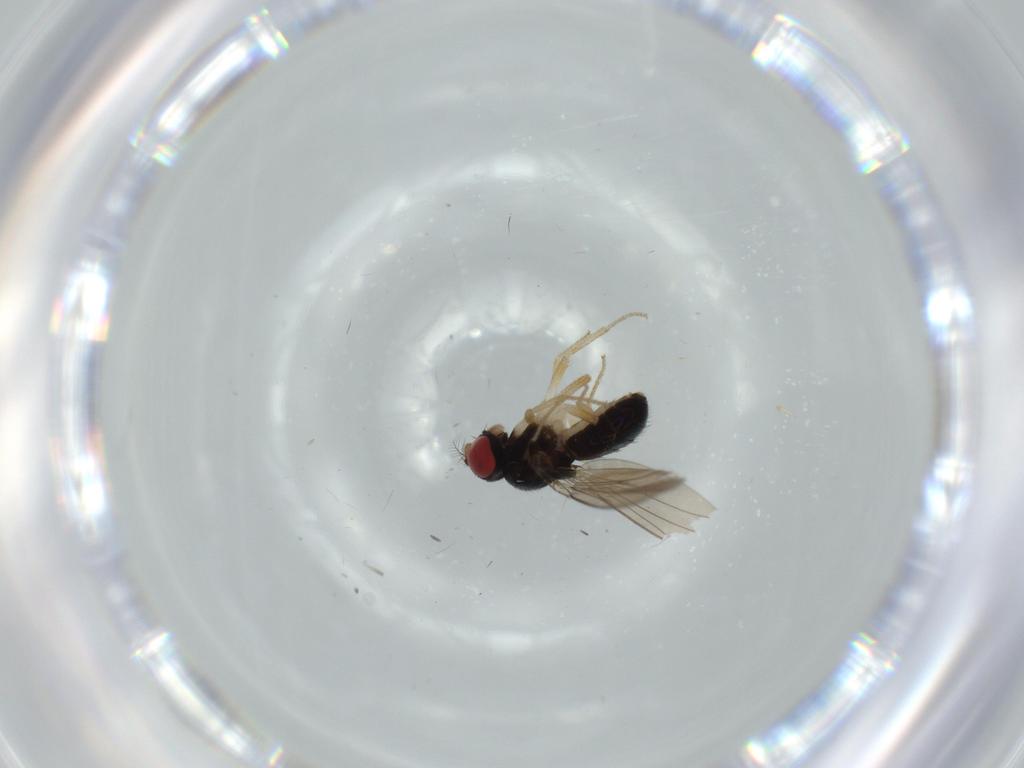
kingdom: Animalia
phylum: Arthropoda
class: Insecta
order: Diptera
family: Drosophilidae
